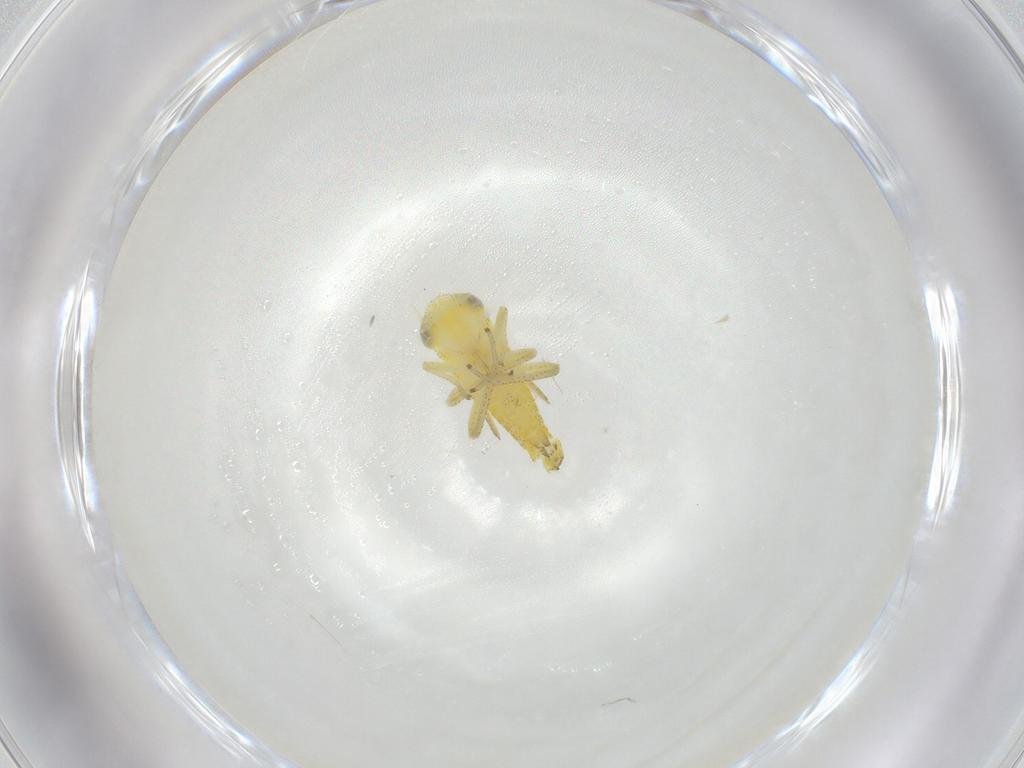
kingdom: Animalia
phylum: Arthropoda
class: Insecta
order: Hemiptera
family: Cicadellidae
